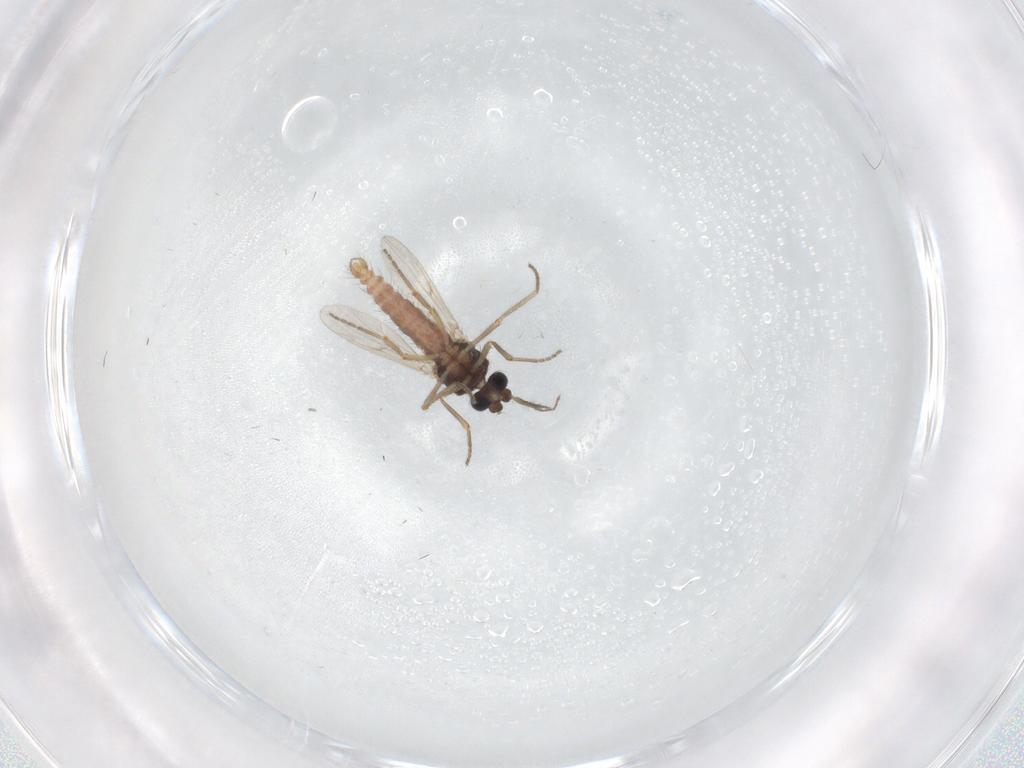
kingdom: Animalia
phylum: Arthropoda
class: Insecta
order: Diptera
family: Ceratopogonidae
